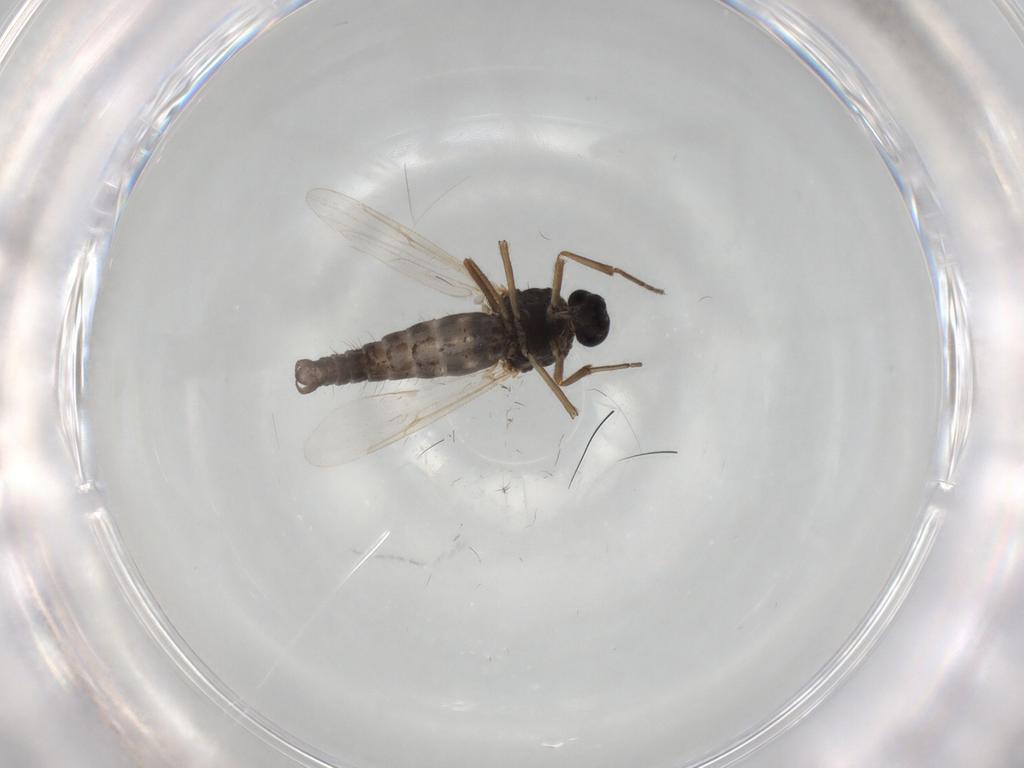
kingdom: Animalia
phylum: Arthropoda
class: Insecta
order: Diptera
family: Ceratopogonidae
